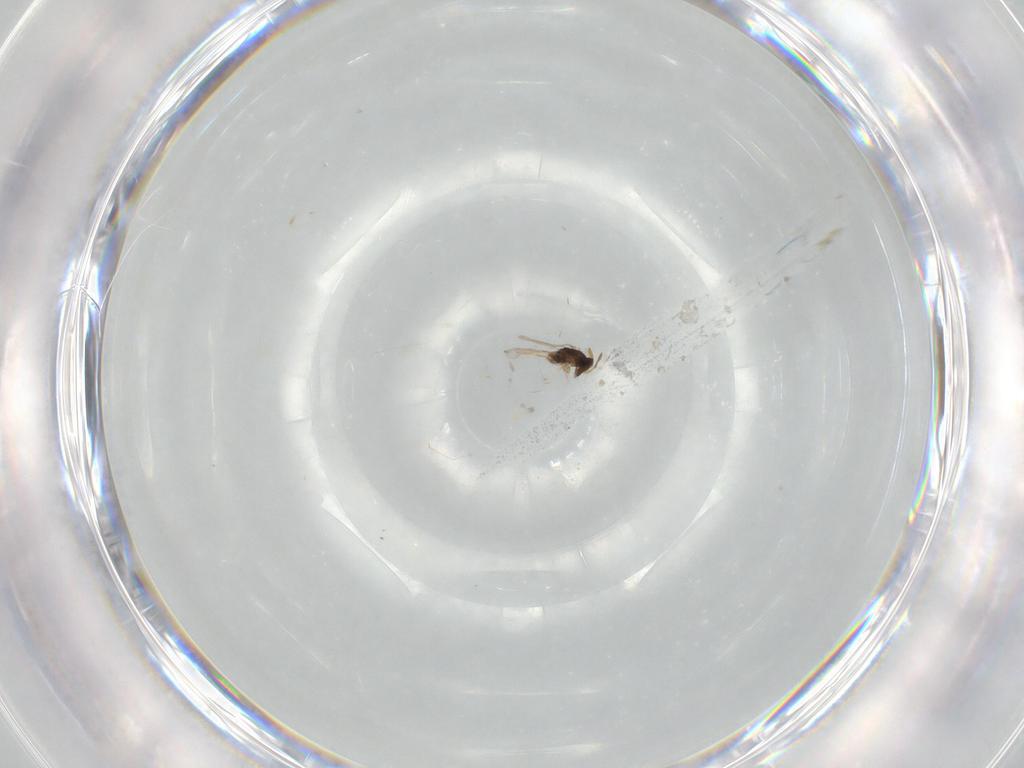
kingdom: Animalia
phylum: Arthropoda
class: Insecta
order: Hymenoptera
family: Encyrtidae
